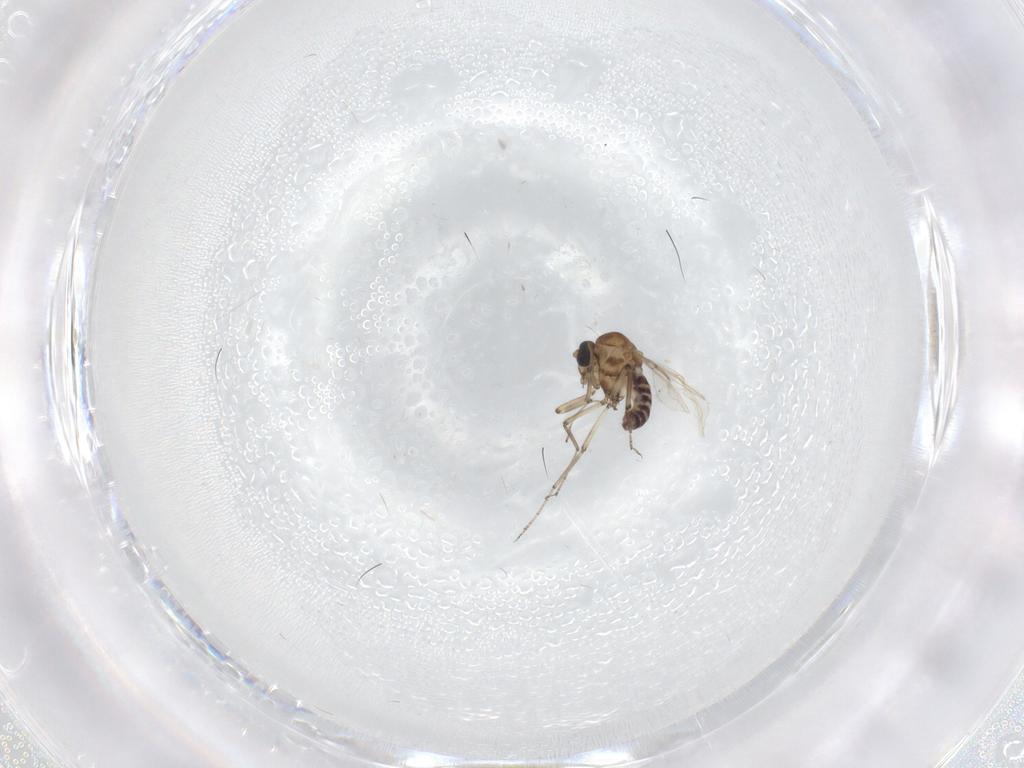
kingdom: Animalia
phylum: Arthropoda
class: Insecta
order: Diptera
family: Ceratopogonidae
